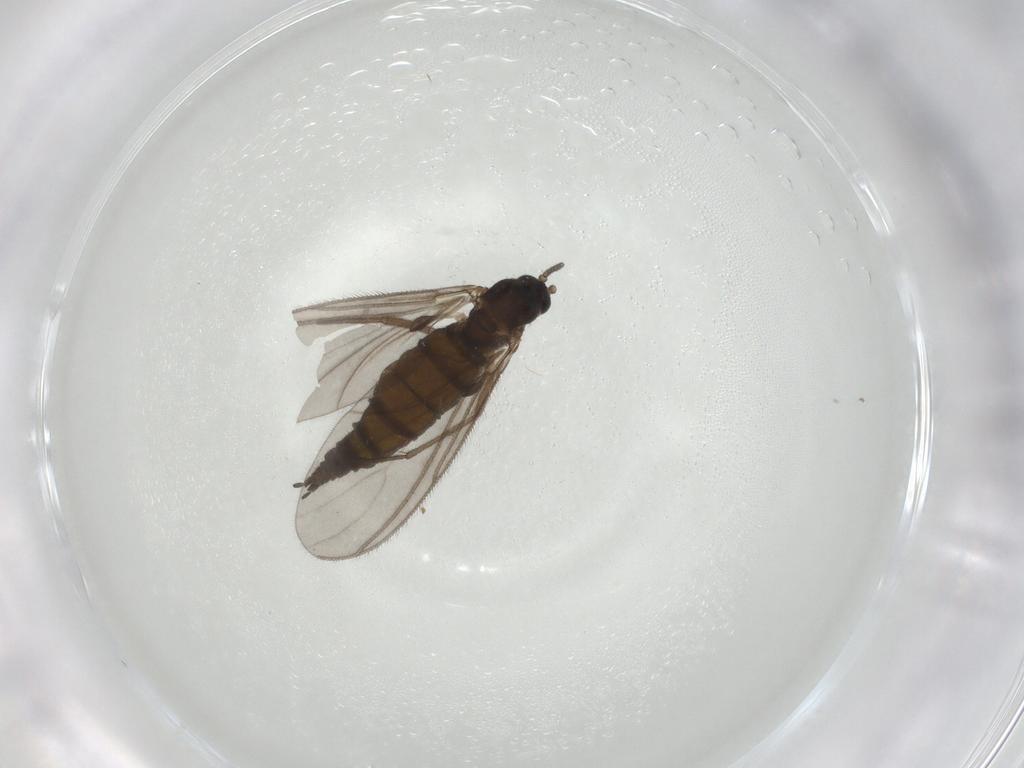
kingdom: Animalia
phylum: Arthropoda
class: Insecta
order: Diptera
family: Sciaridae
